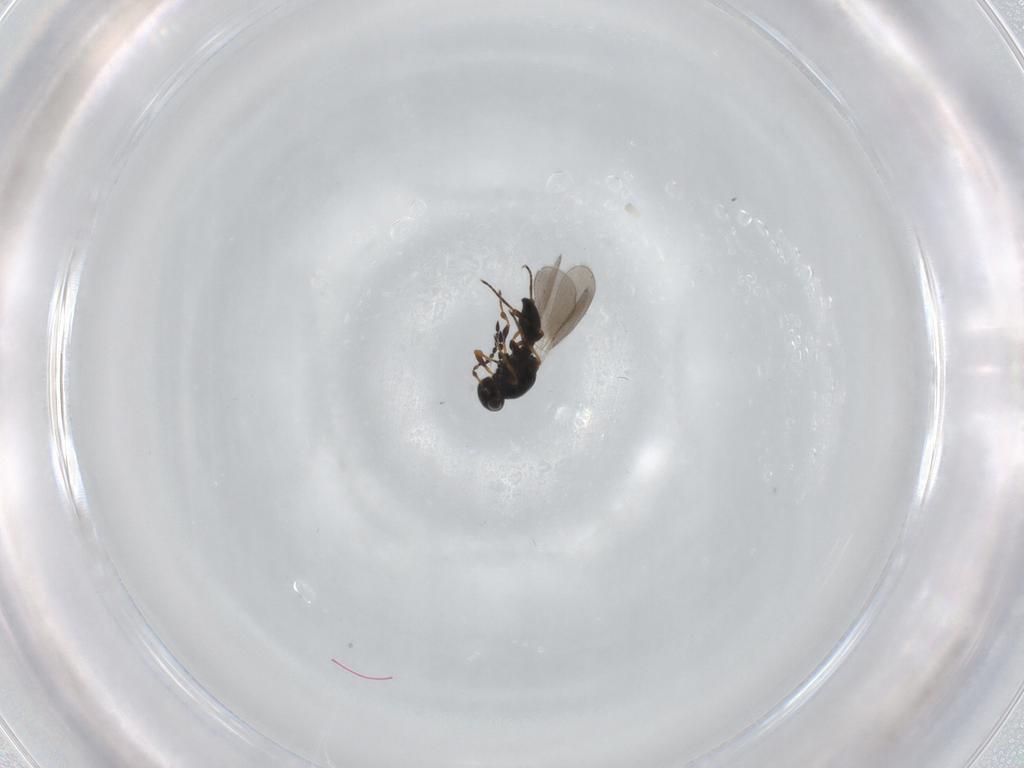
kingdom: Animalia
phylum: Arthropoda
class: Insecta
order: Hymenoptera
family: Platygastridae
